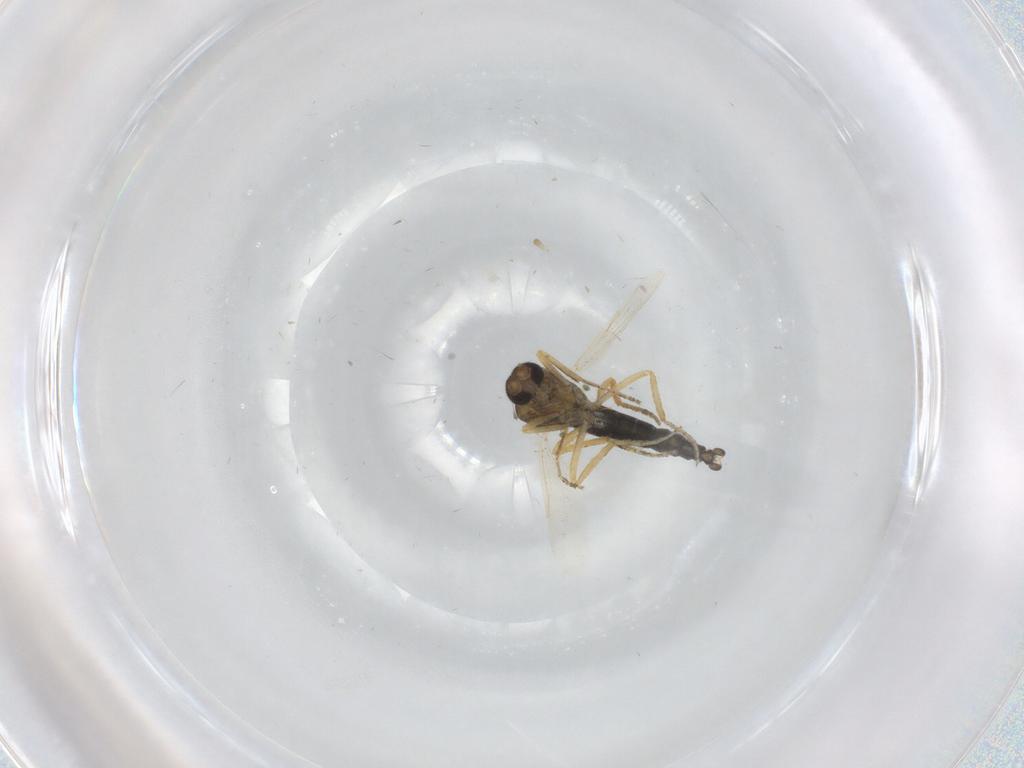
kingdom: Animalia
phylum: Arthropoda
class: Insecta
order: Diptera
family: Ceratopogonidae
